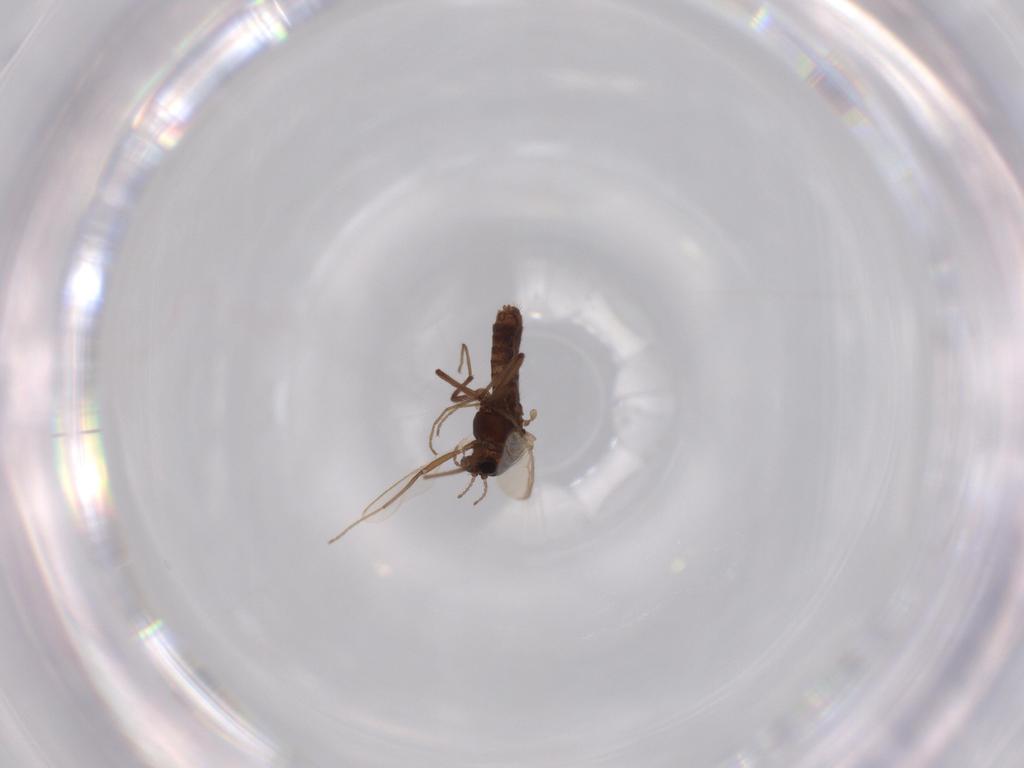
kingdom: Animalia
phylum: Arthropoda
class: Insecta
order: Diptera
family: Chironomidae
